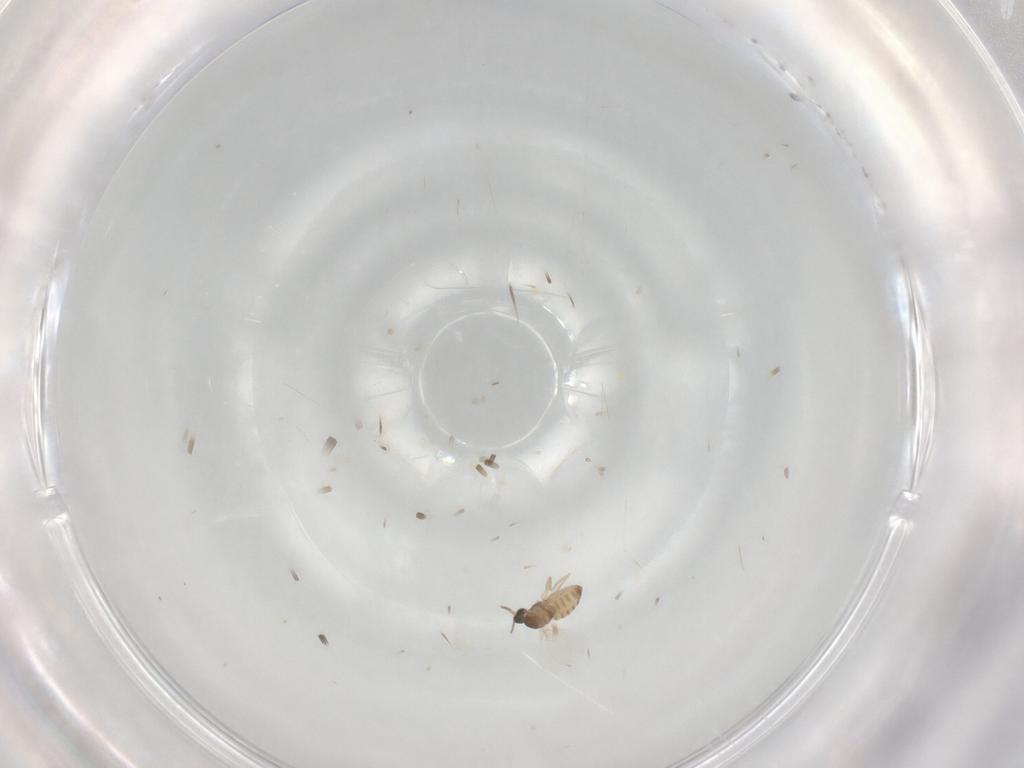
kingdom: Animalia
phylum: Arthropoda
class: Insecta
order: Diptera
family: Cecidomyiidae
